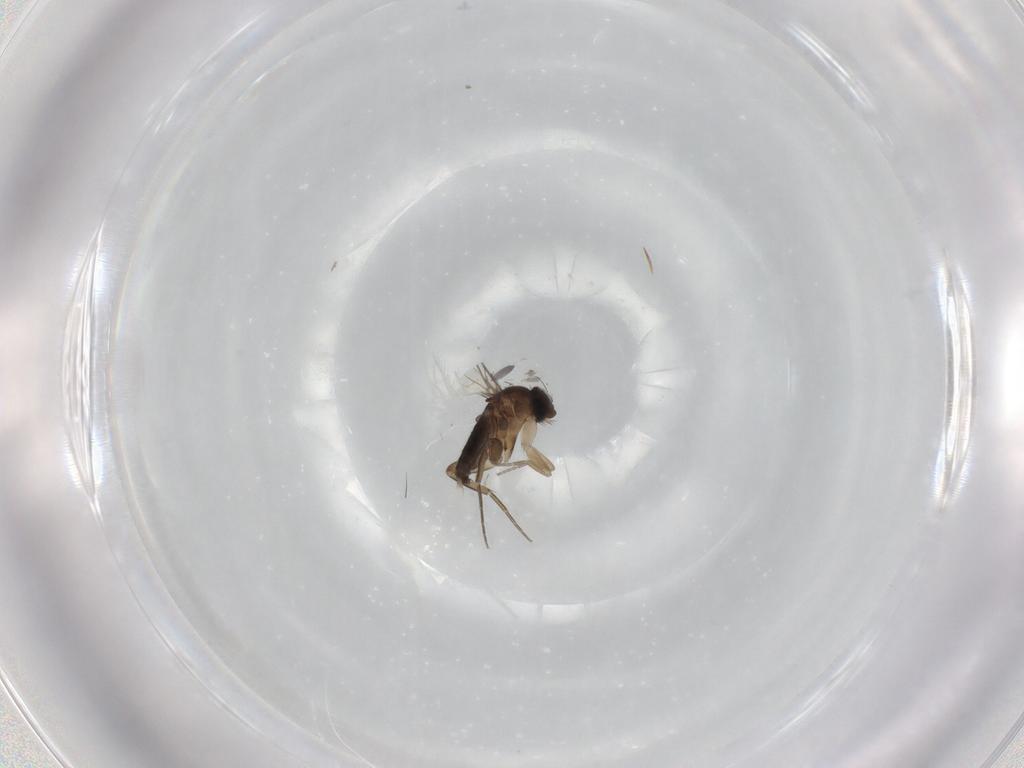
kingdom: Animalia
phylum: Arthropoda
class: Insecta
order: Diptera
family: Phoridae
